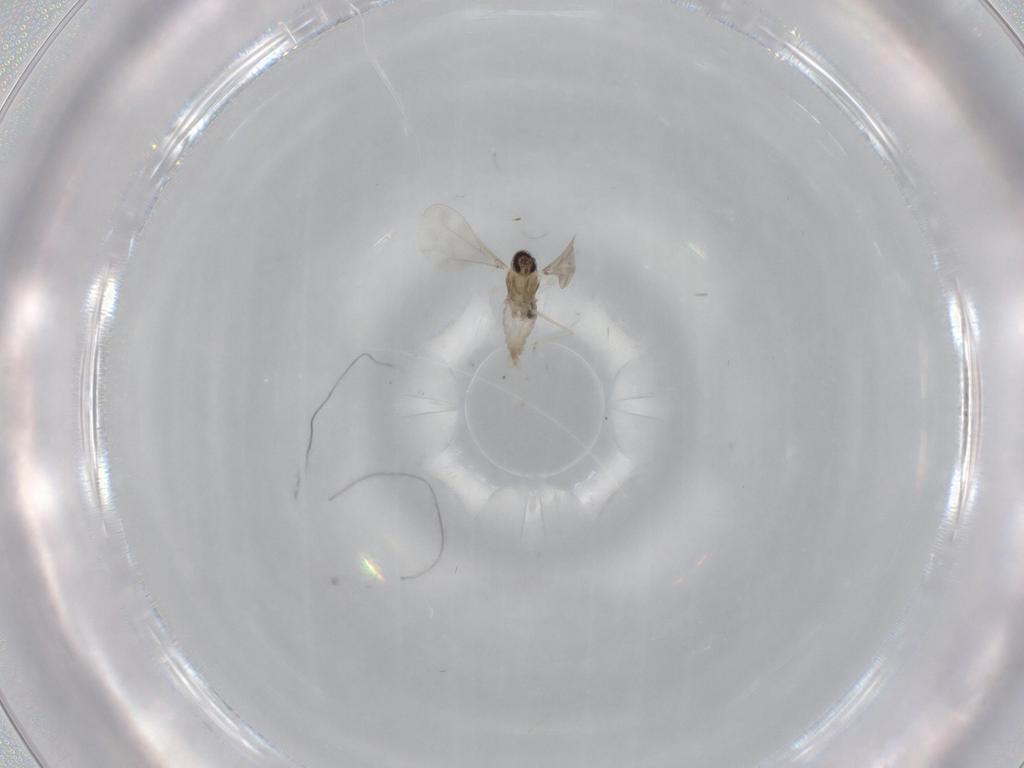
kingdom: Animalia
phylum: Arthropoda
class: Insecta
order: Diptera
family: Cecidomyiidae
